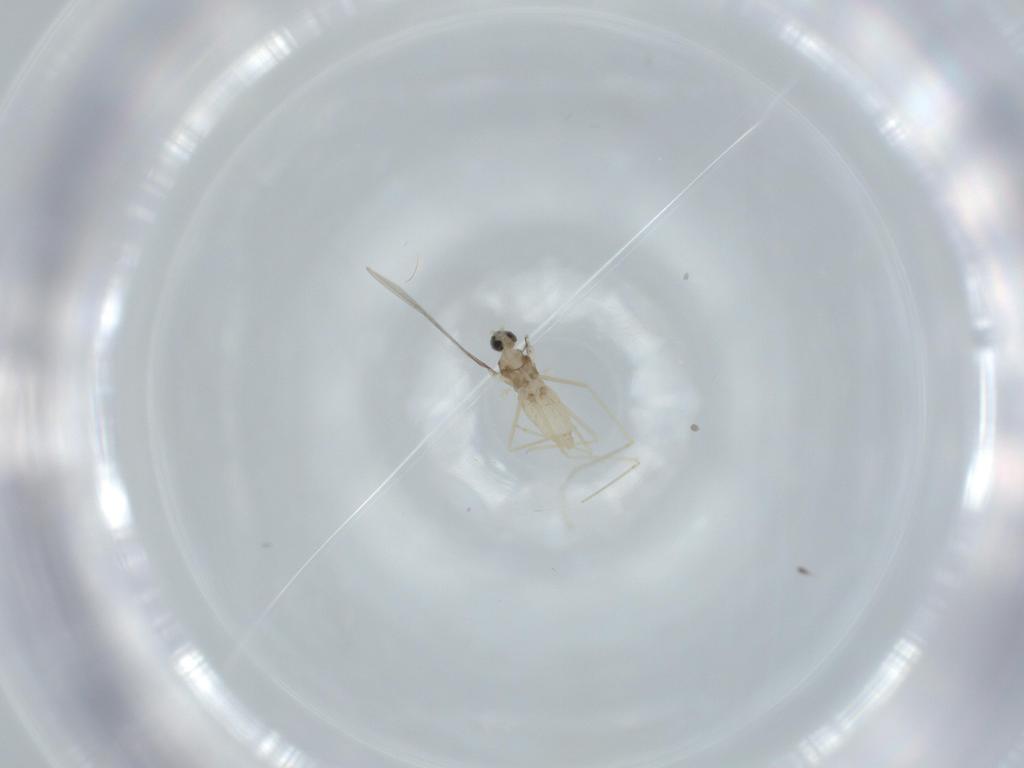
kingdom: Animalia
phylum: Arthropoda
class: Insecta
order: Diptera
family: Cecidomyiidae
